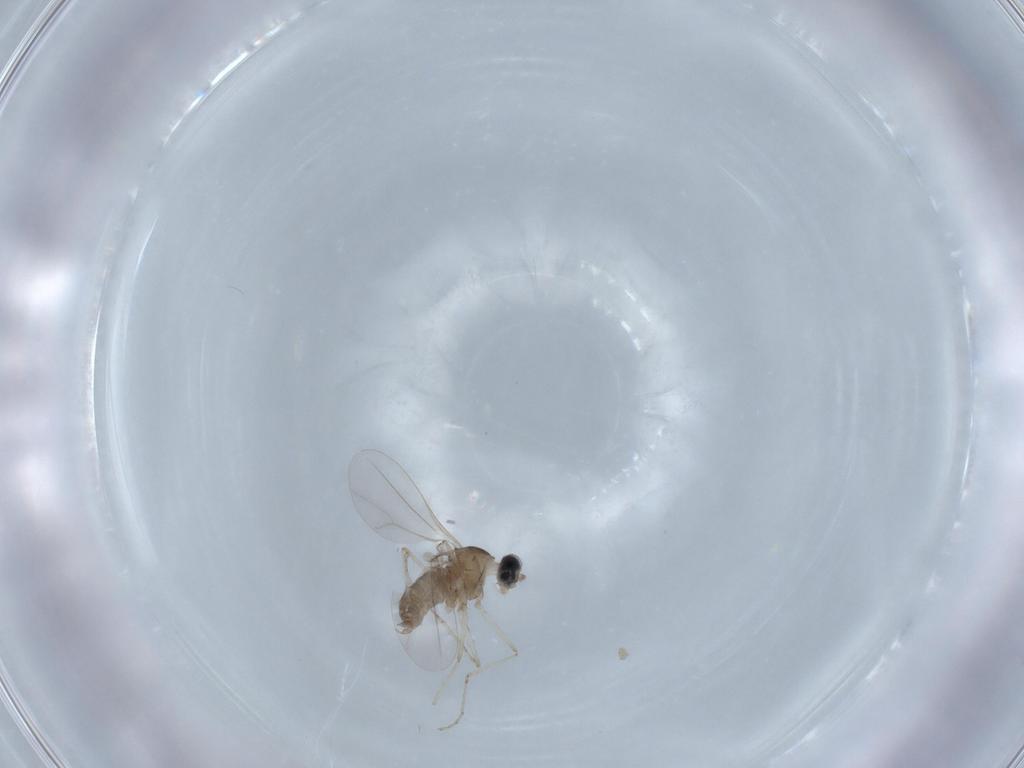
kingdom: Animalia
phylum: Arthropoda
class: Insecta
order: Diptera
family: Cecidomyiidae
